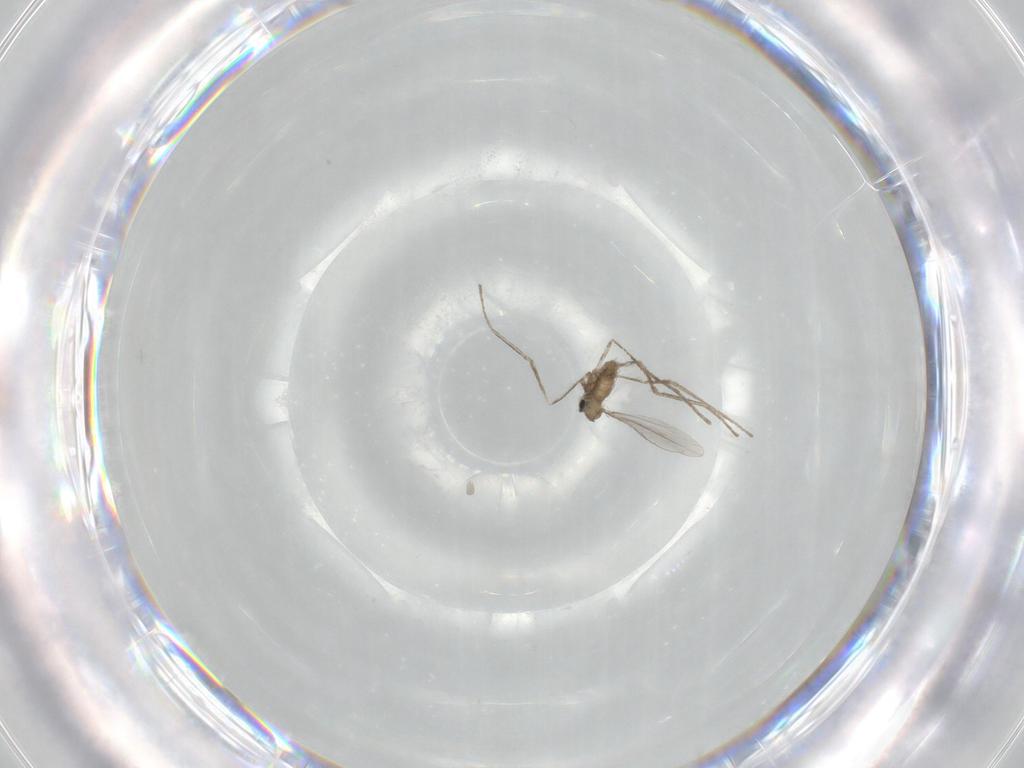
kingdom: Animalia
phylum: Arthropoda
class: Insecta
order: Diptera
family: Cecidomyiidae
